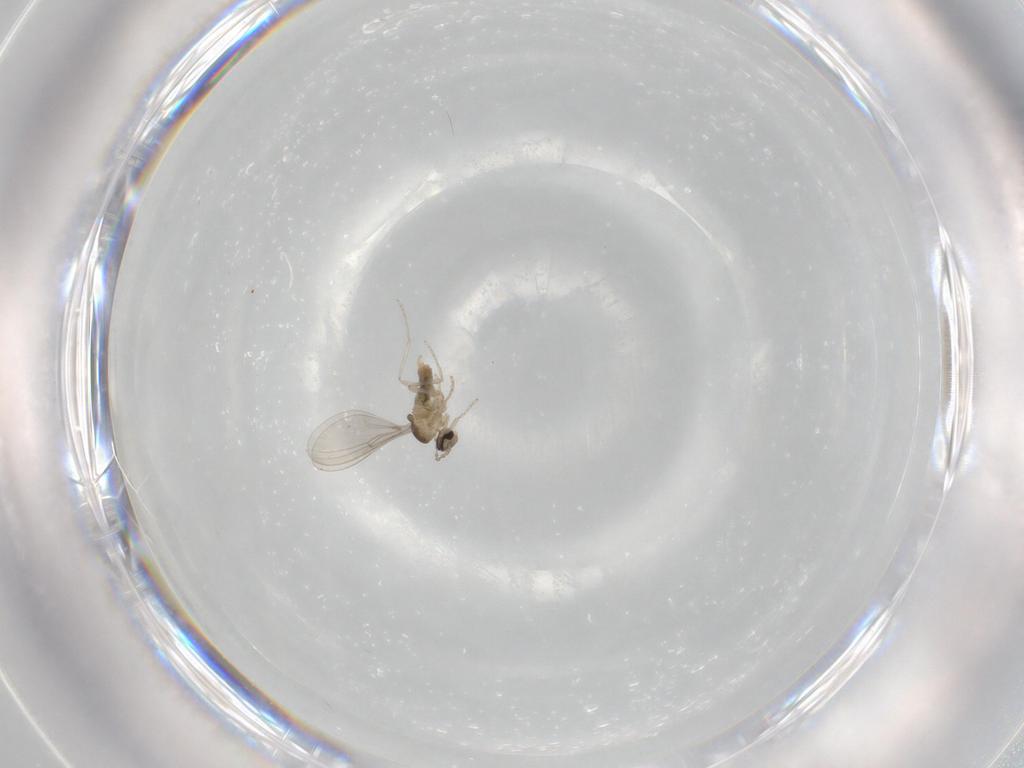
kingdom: Animalia
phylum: Arthropoda
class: Insecta
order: Diptera
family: Cecidomyiidae
